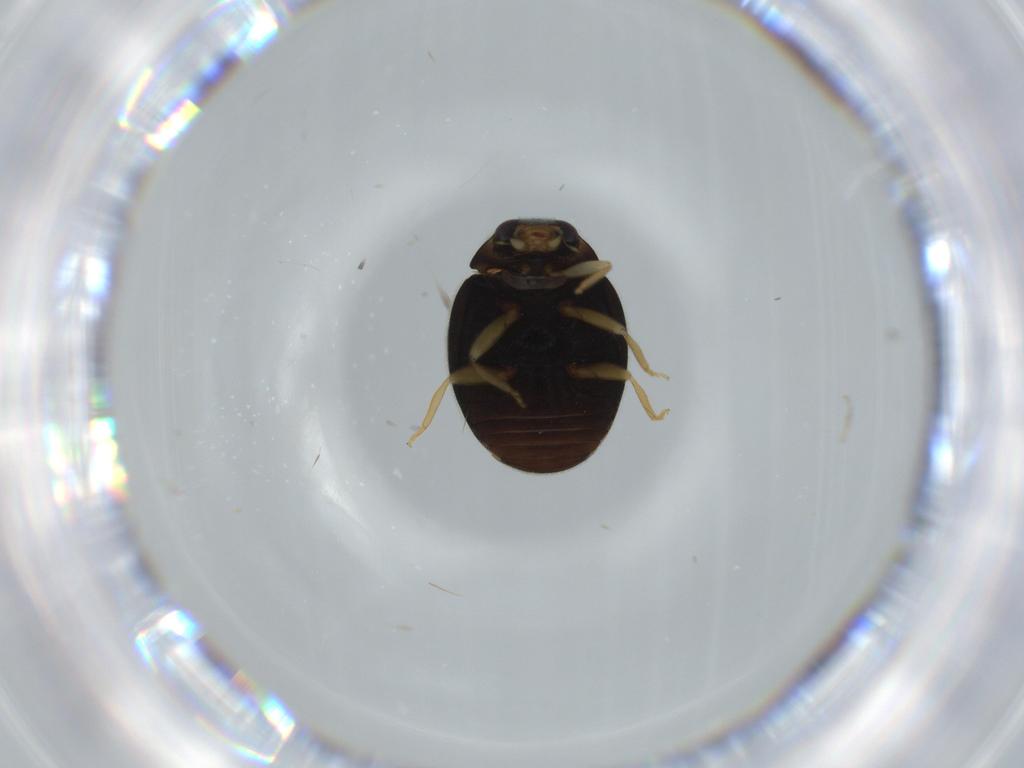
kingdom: Animalia
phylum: Arthropoda
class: Insecta
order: Coleoptera
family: Coccinellidae
